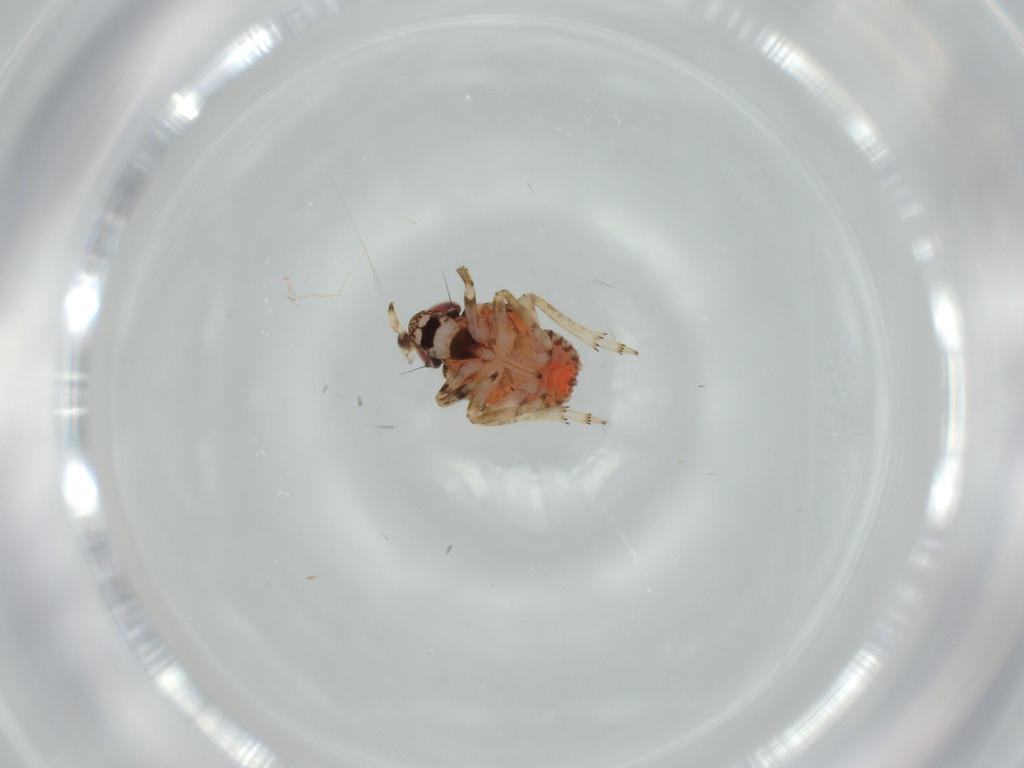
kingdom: Animalia
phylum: Arthropoda
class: Insecta
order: Hemiptera
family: Issidae
